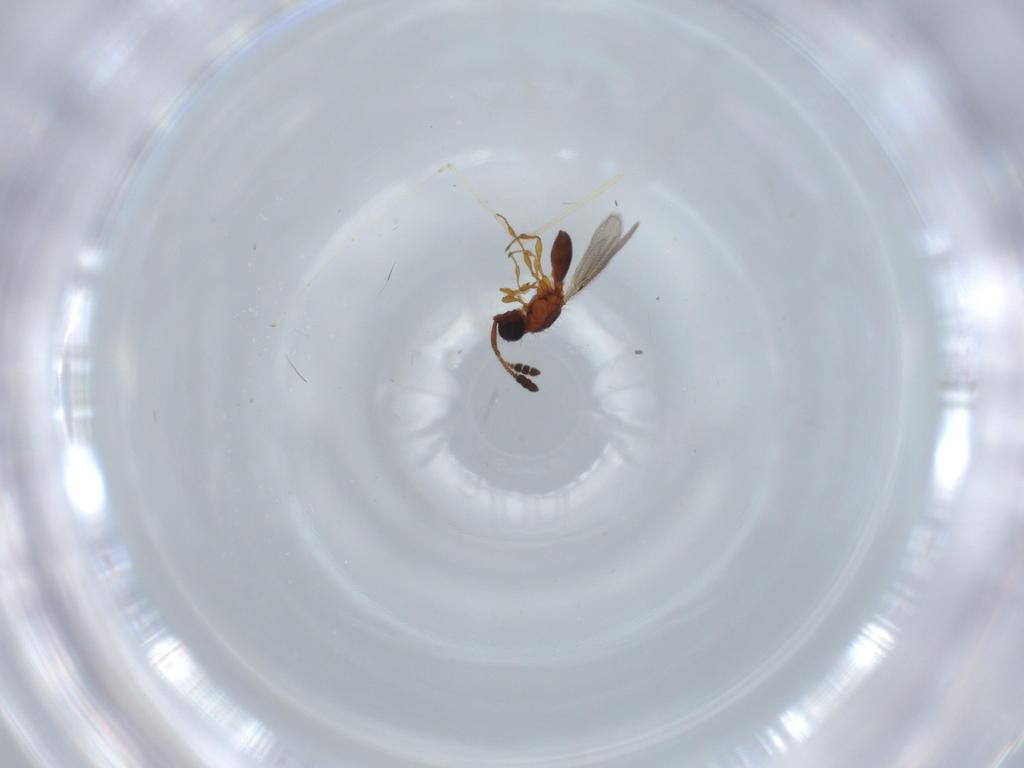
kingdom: Animalia
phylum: Arthropoda
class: Insecta
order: Hymenoptera
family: Diapriidae
